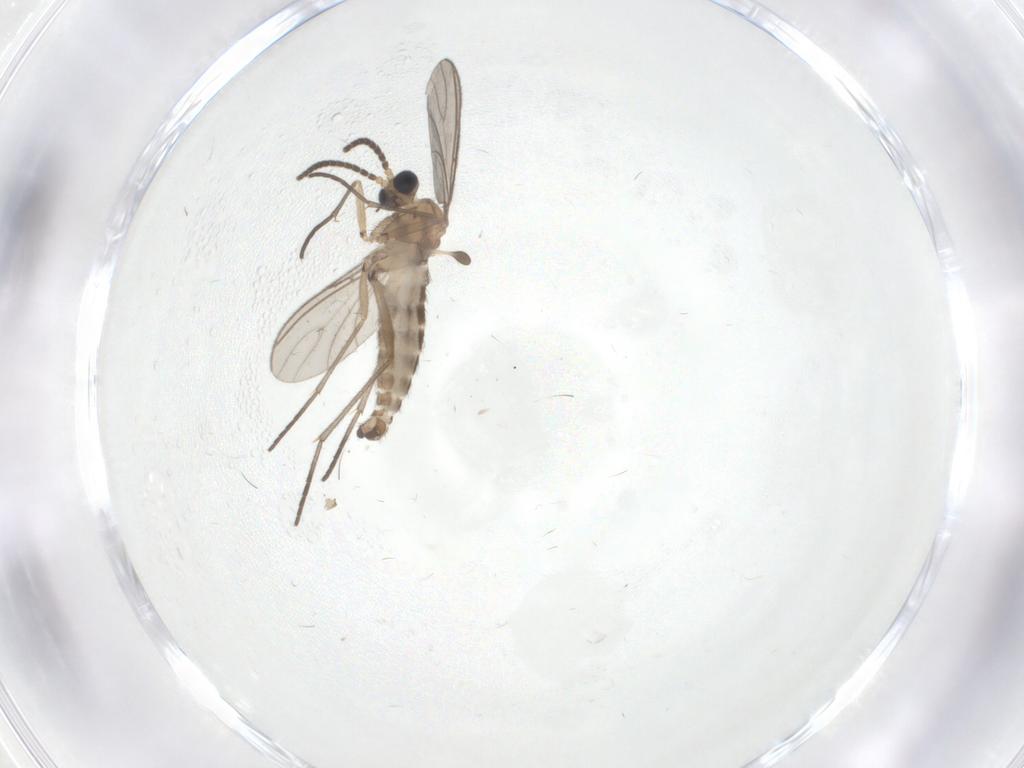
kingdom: Animalia
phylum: Arthropoda
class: Insecta
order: Diptera
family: Sciaridae
